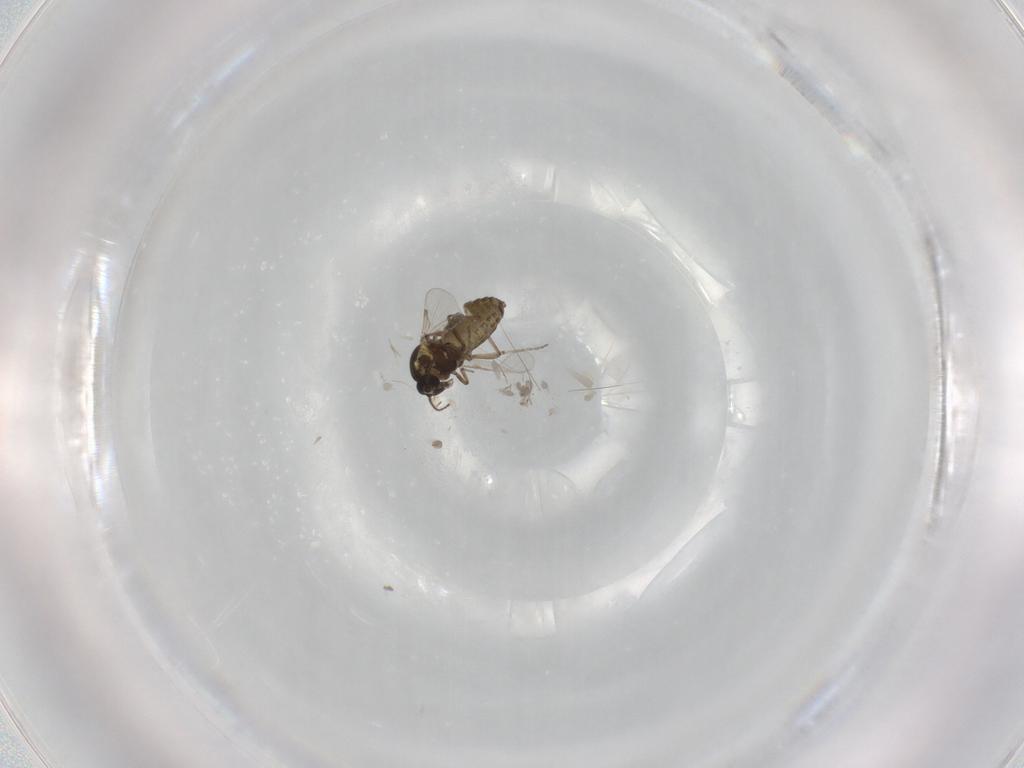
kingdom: Animalia
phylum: Arthropoda
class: Insecta
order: Diptera
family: Ceratopogonidae
